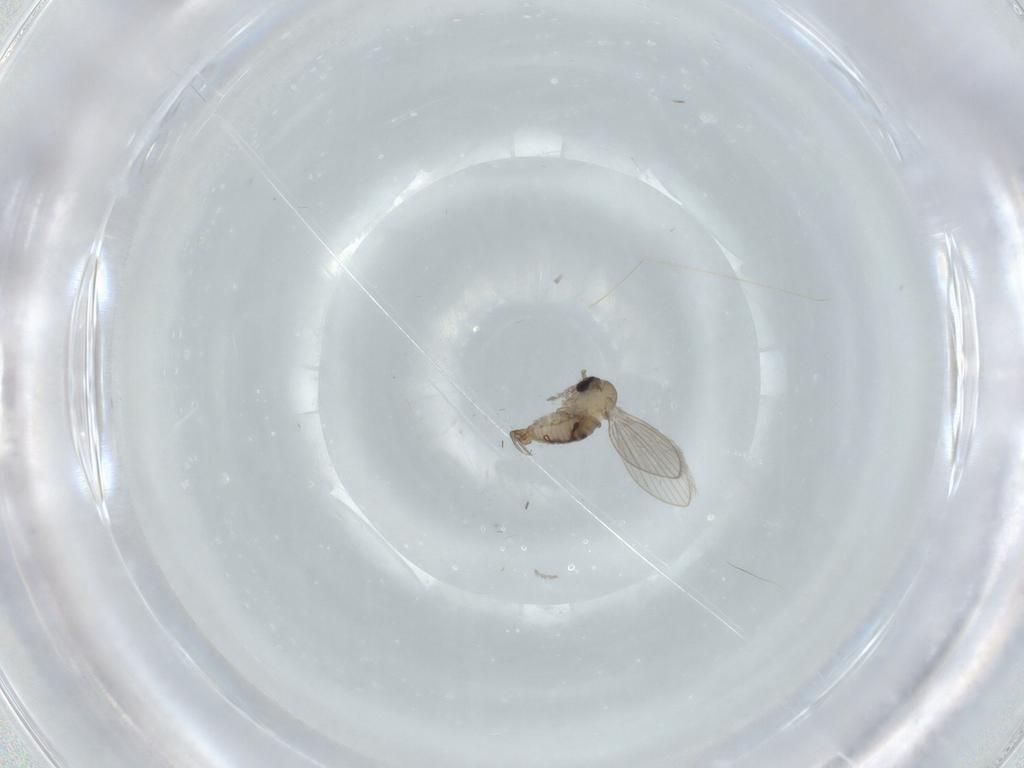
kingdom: Animalia
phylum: Arthropoda
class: Insecta
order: Diptera
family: Psychodidae
